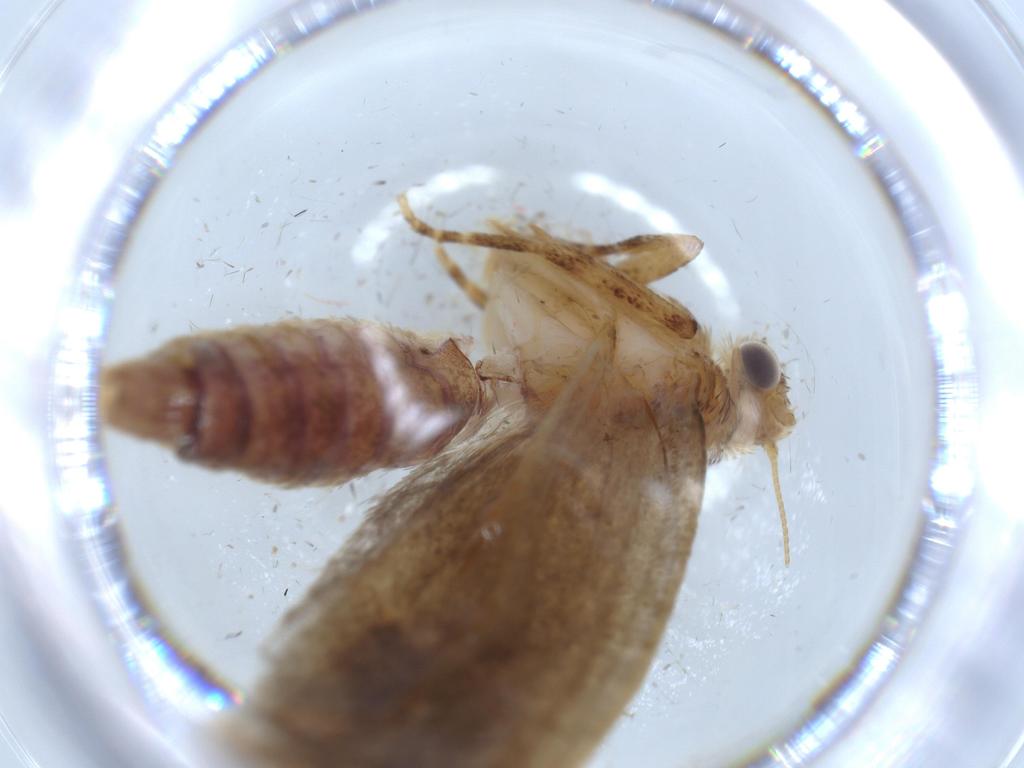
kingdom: Animalia
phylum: Arthropoda
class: Insecta
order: Lepidoptera
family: Tineidae
